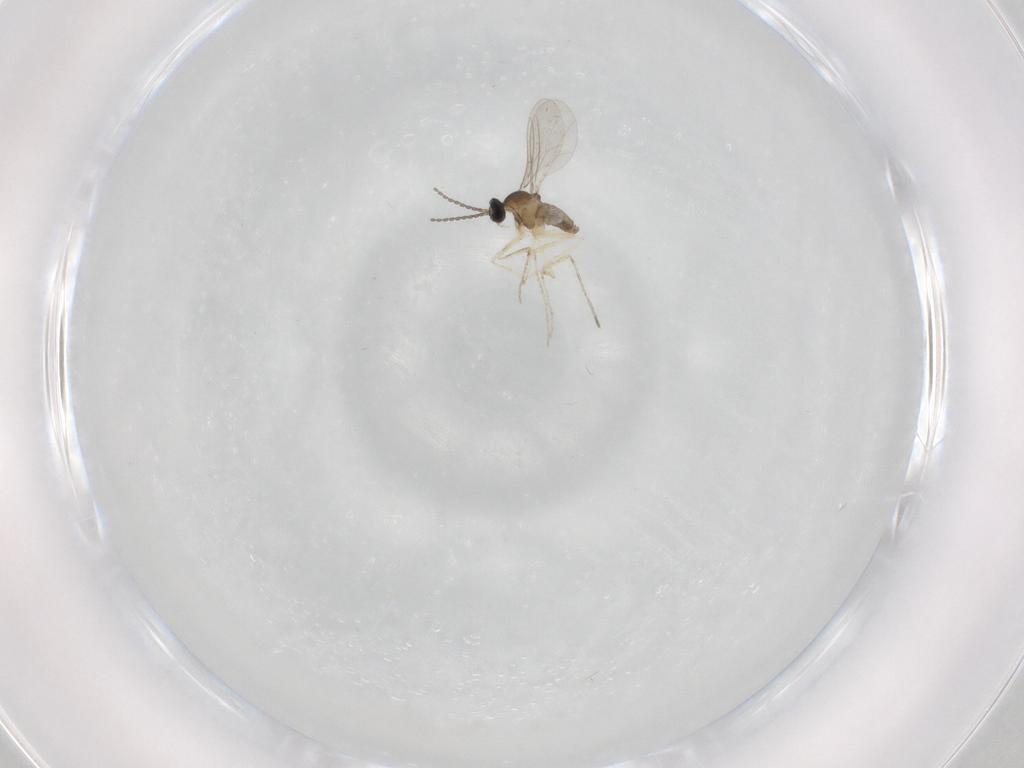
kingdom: Animalia
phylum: Arthropoda
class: Insecta
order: Diptera
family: Cecidomyiidae
